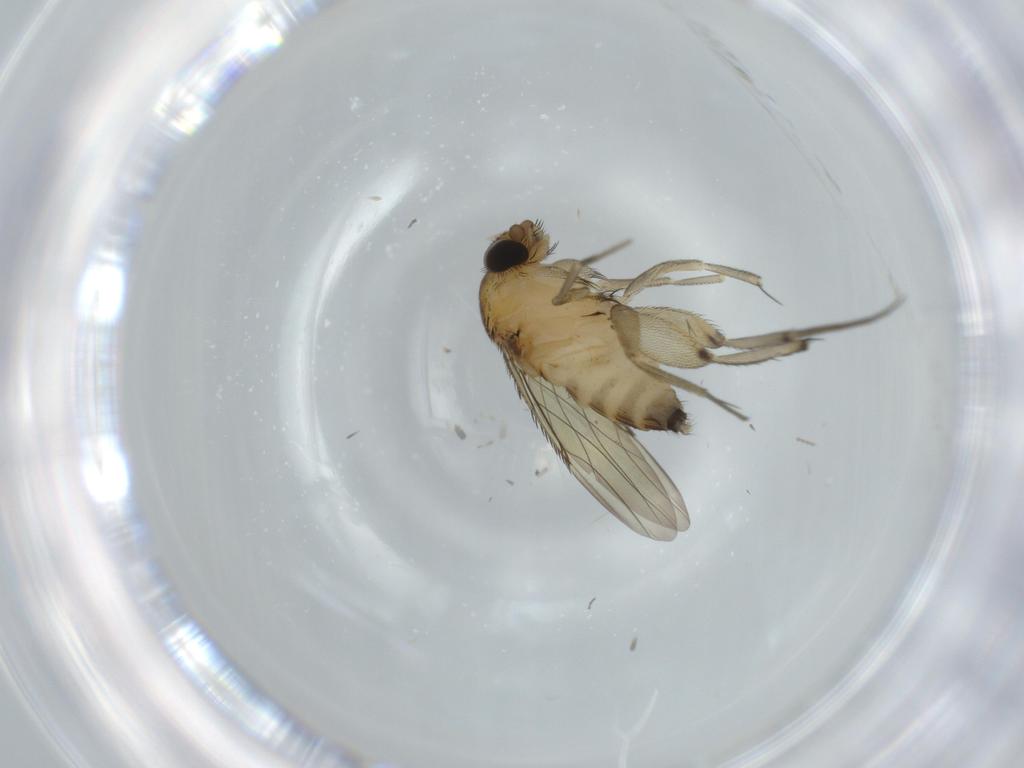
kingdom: Animalia
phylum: Arthropoda
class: Insecta
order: Diptera
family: Phoridae
